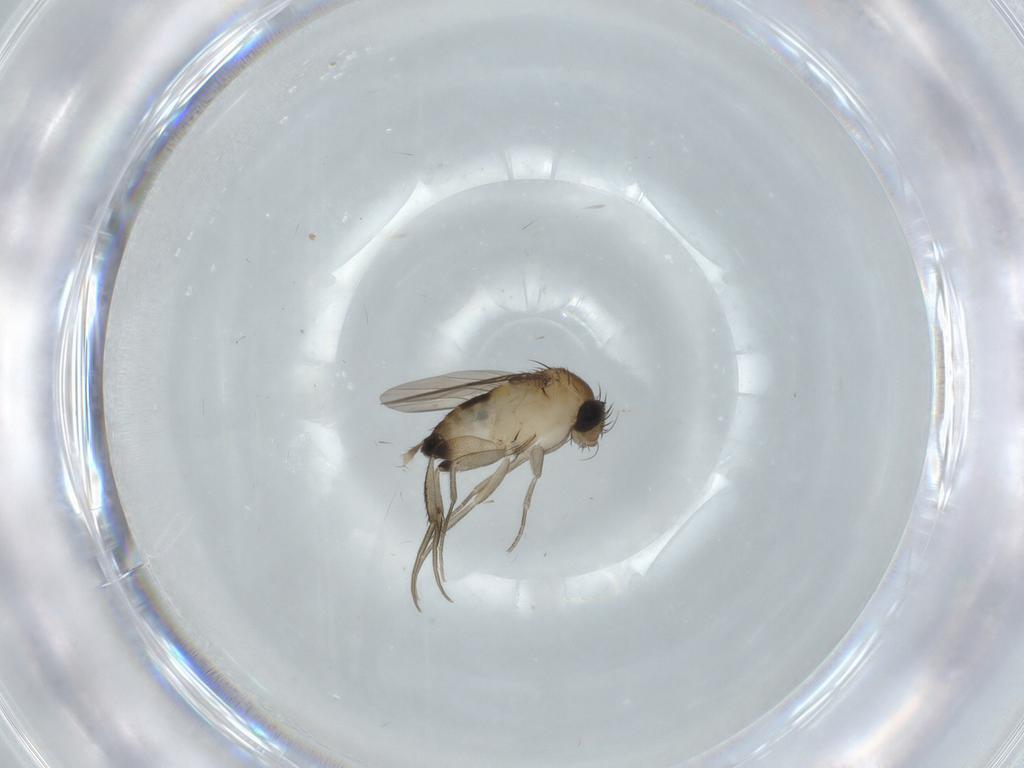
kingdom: Animalia
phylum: Arthropoda
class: Insecta
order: Diptera
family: Phoridae
